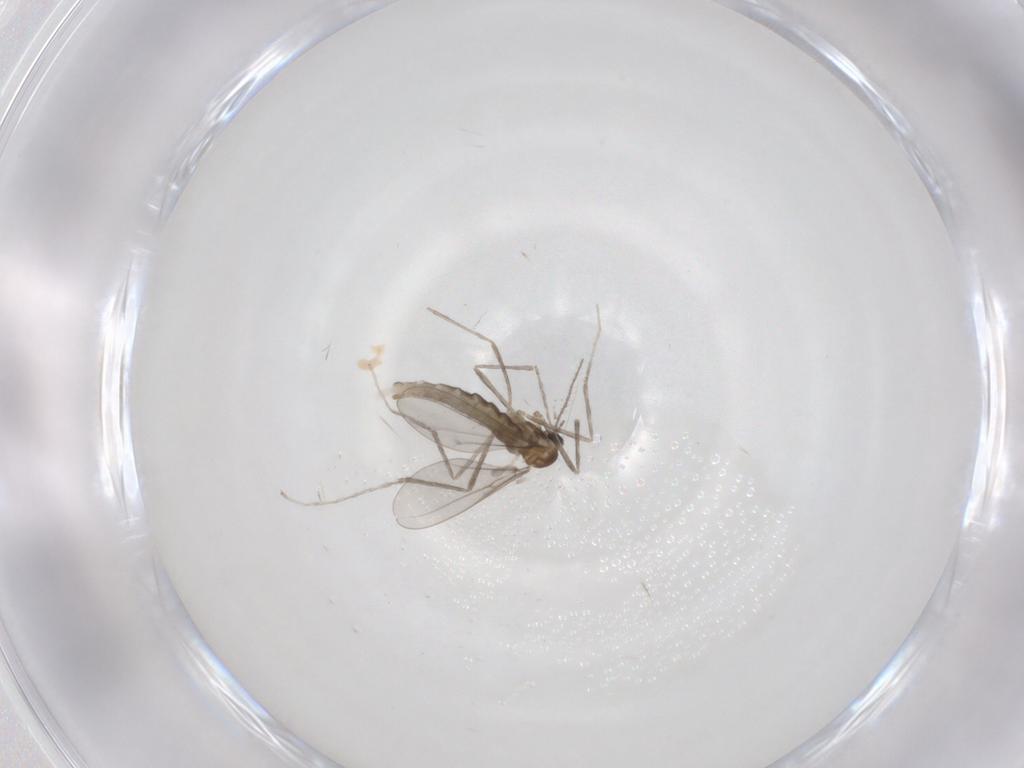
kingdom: Animalia
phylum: Arthropoda
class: Insecta
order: Diptera
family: Cecidomyiidae
